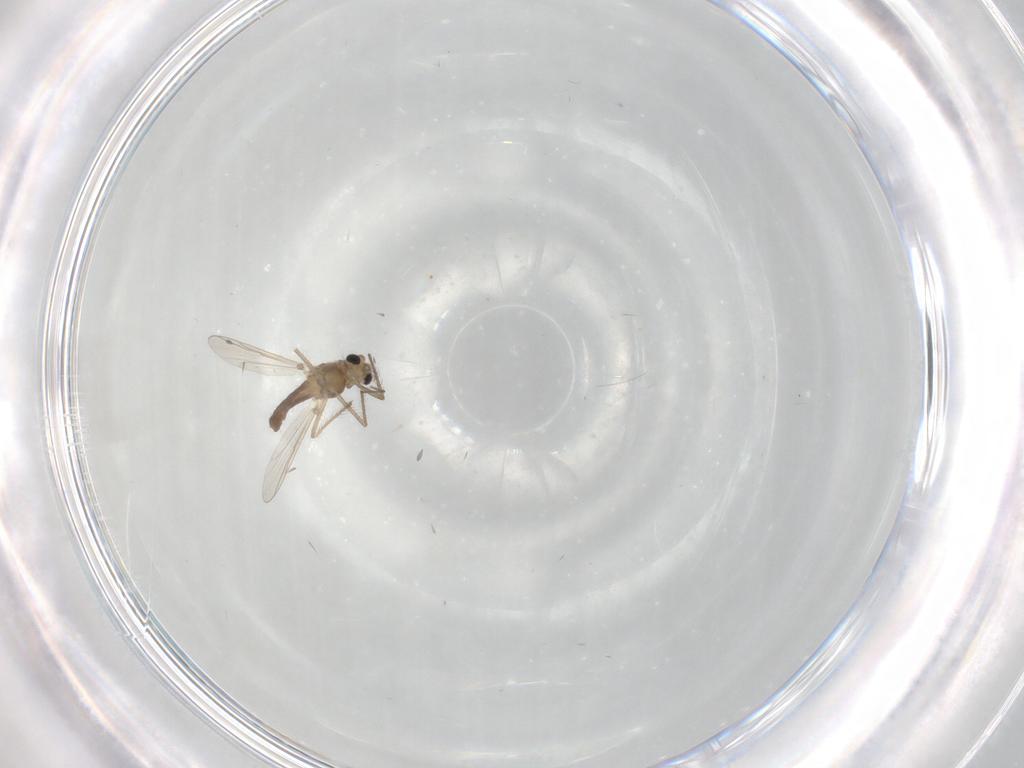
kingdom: Animalia
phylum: Arthropoda
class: Insecta
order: Diptera
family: Chironomidae
